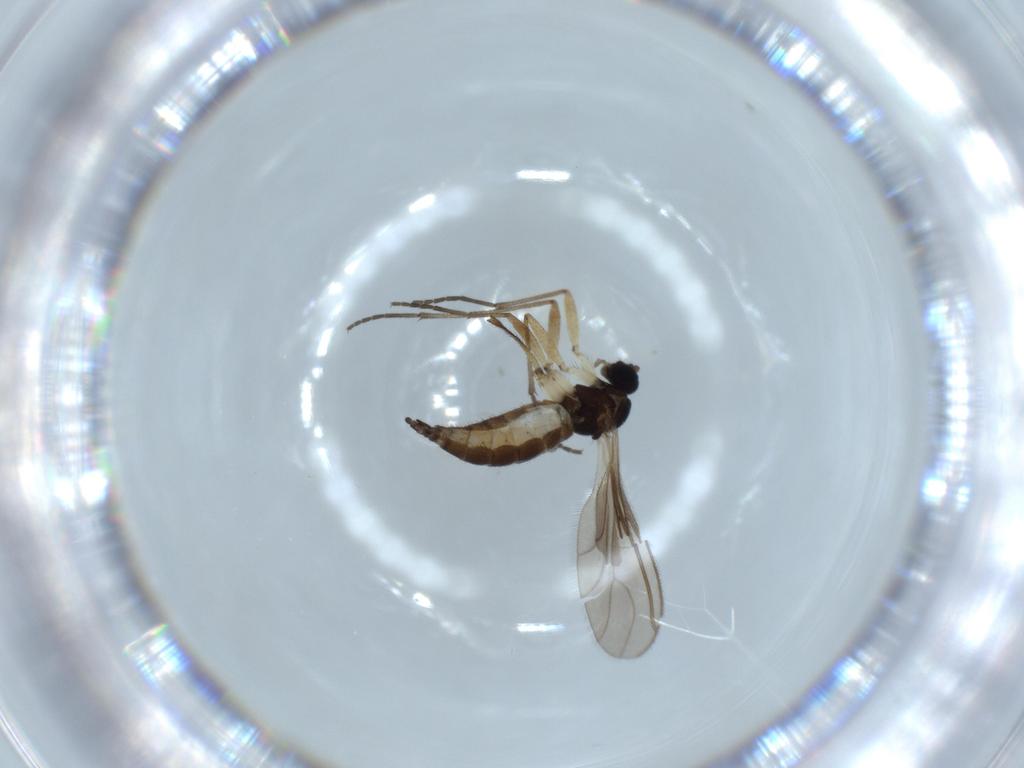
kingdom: Animalia
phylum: Arthropoda
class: Insecta
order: Diptera
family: Sciaridae
